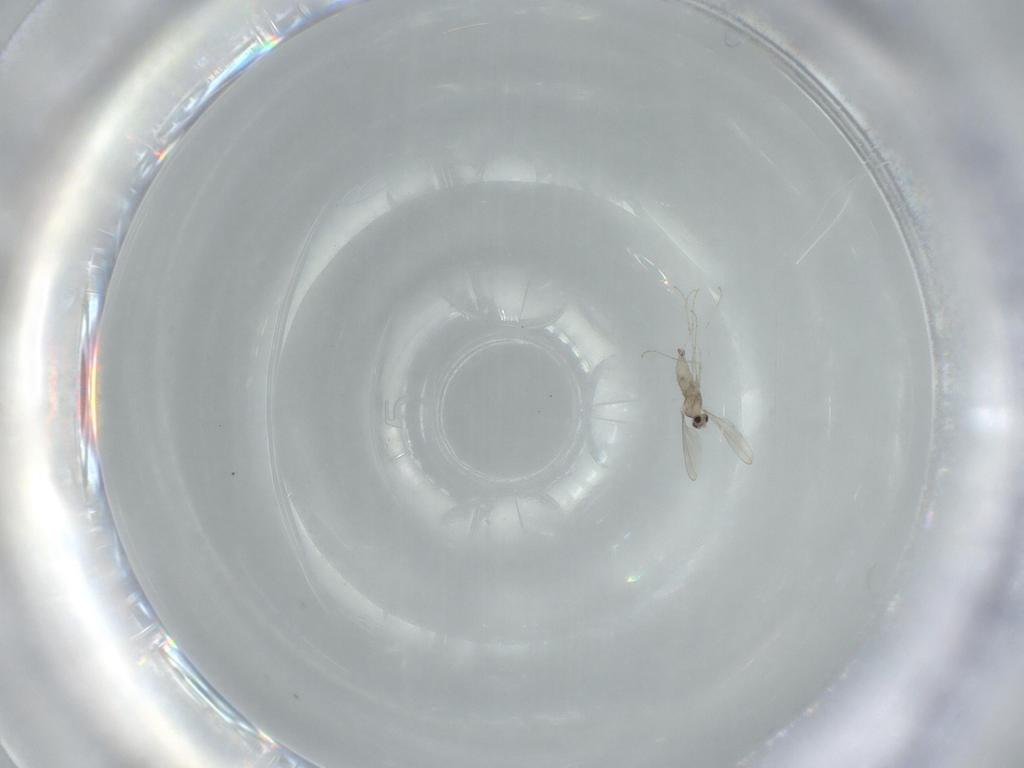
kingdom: Animalia
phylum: Arthropoda
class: Insecta
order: Diptera
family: Cecidomyiidae
